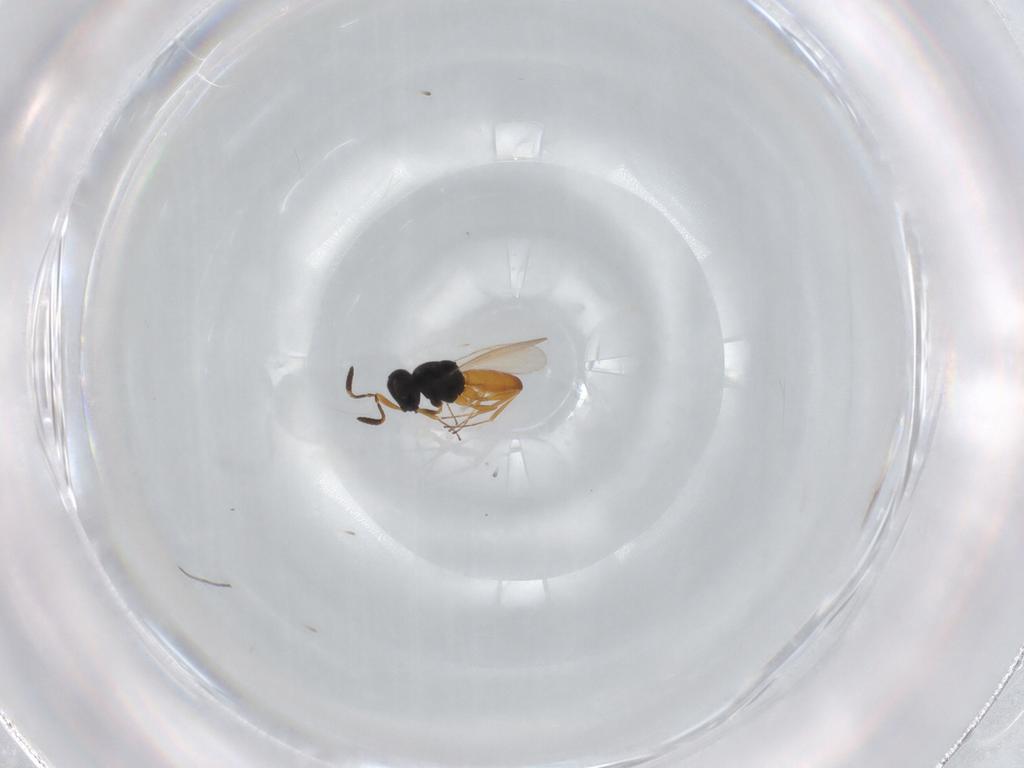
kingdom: Animalia
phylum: Arthropoda
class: Insecta
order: Hymenoptera
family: Scelionidae
